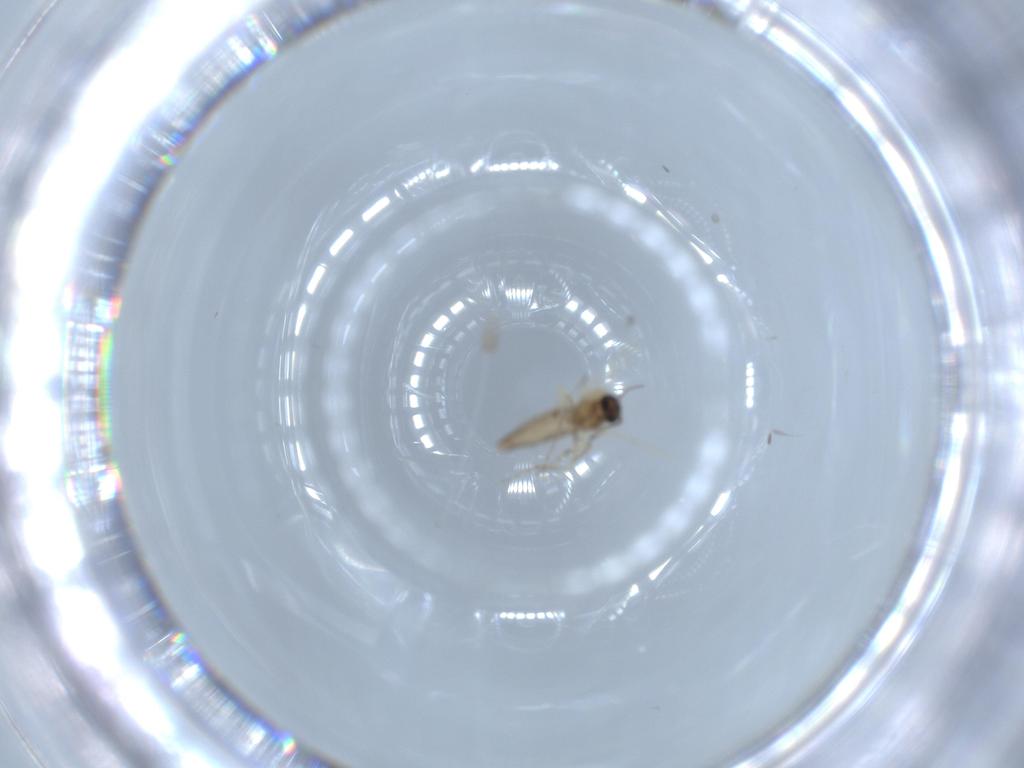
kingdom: Animalia
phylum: Arthropoda
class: Insecta
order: Diptera
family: Ceratopogonidae
